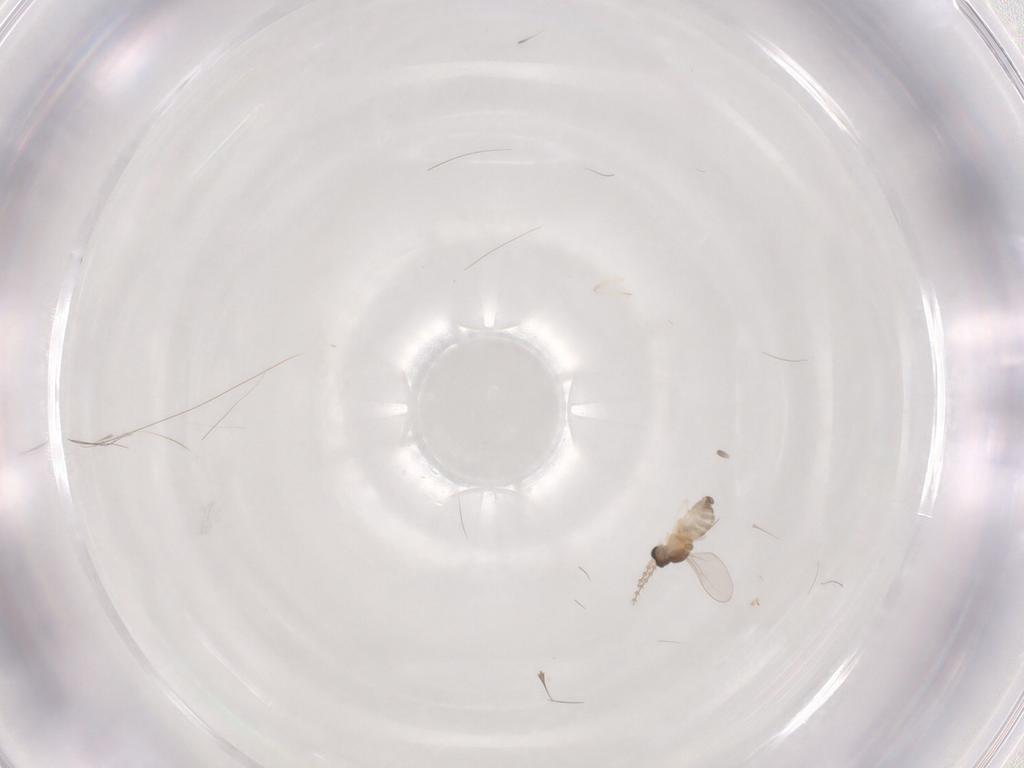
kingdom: Animalia
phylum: Arthropoda
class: Insecta
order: Diptera
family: Cecidomyiidae
